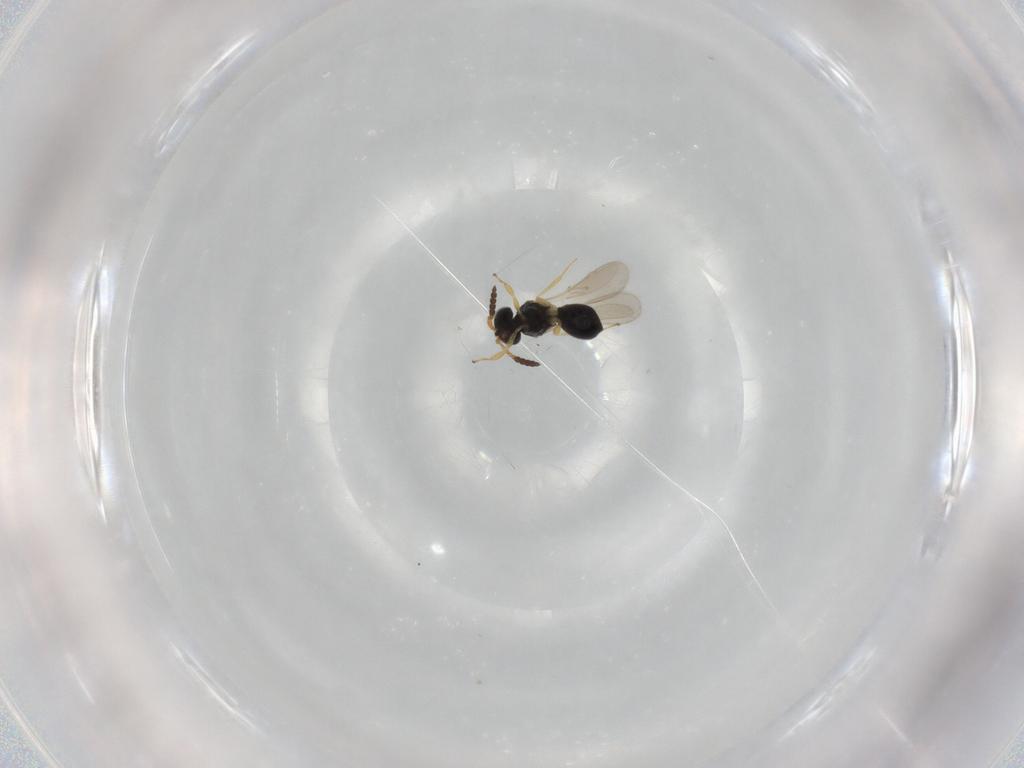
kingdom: Animalia
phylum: Arthropoda
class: Insecta
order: Hymenoptera
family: Scelionidae
